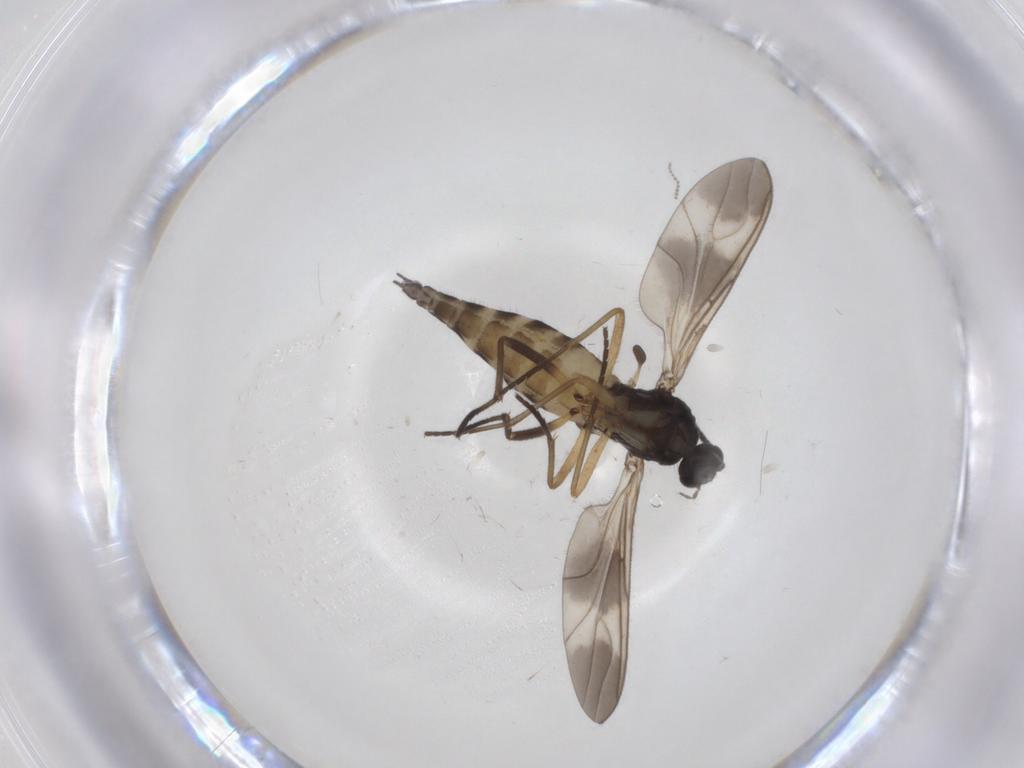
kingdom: Animalia
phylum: Arthropoda
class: Insecta
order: Diptera
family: Sciaridae
